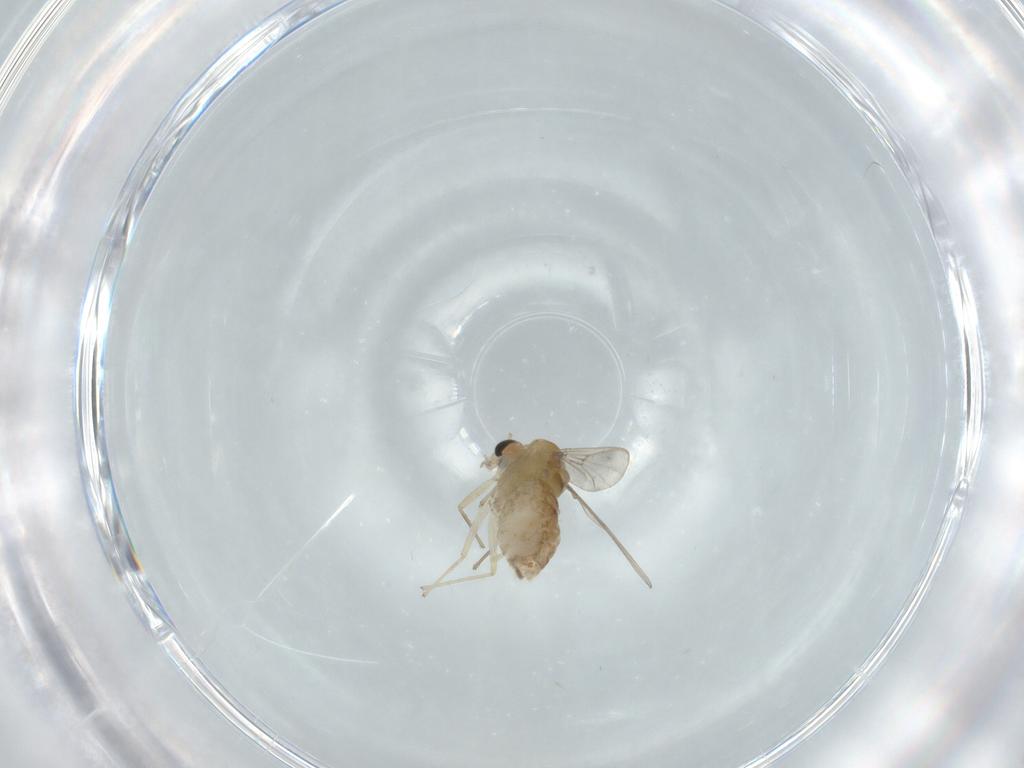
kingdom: Animalia
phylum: Arthropoda
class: Insecta
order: Diptera
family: Chironomidae
